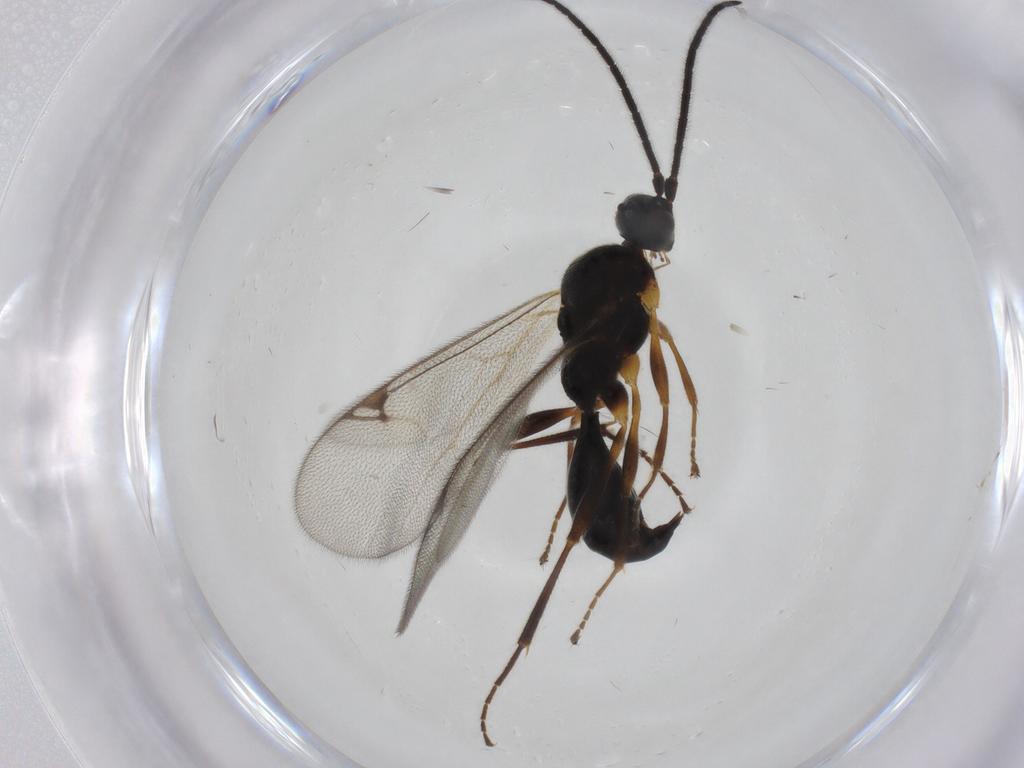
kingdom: Animalia
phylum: Arthropoda
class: Insecta
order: Hymenoptera
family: Proctotrupidae
